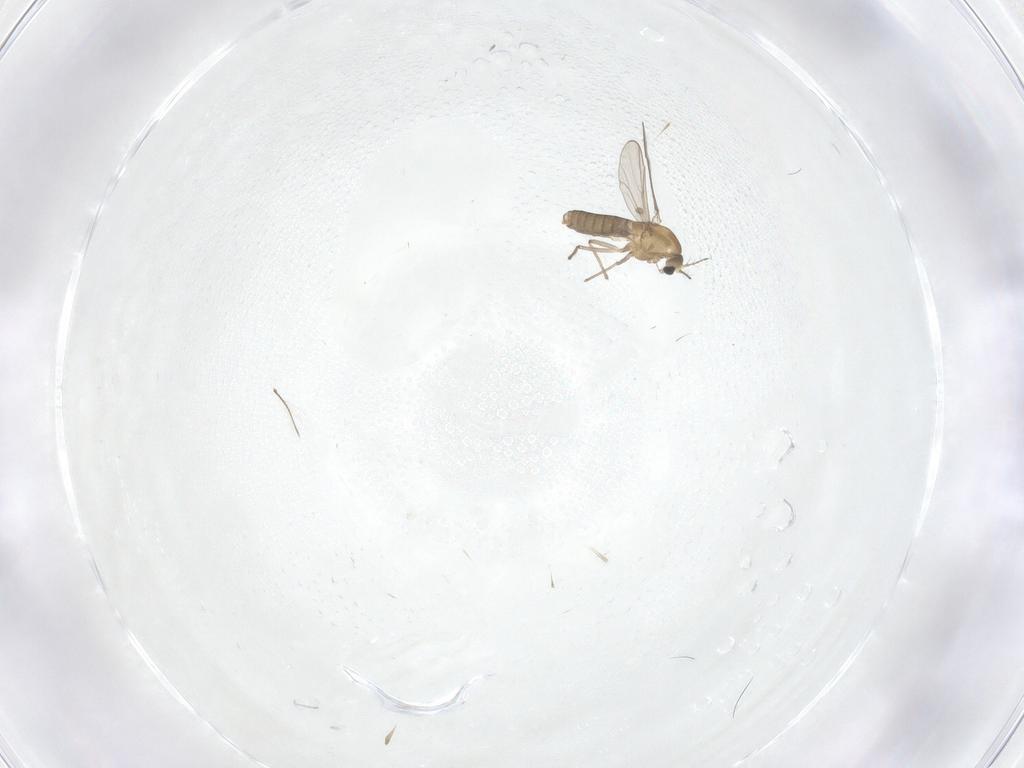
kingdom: Animalia
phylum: Arthropoda
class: Insecta
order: Diptera
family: Chironomidae
